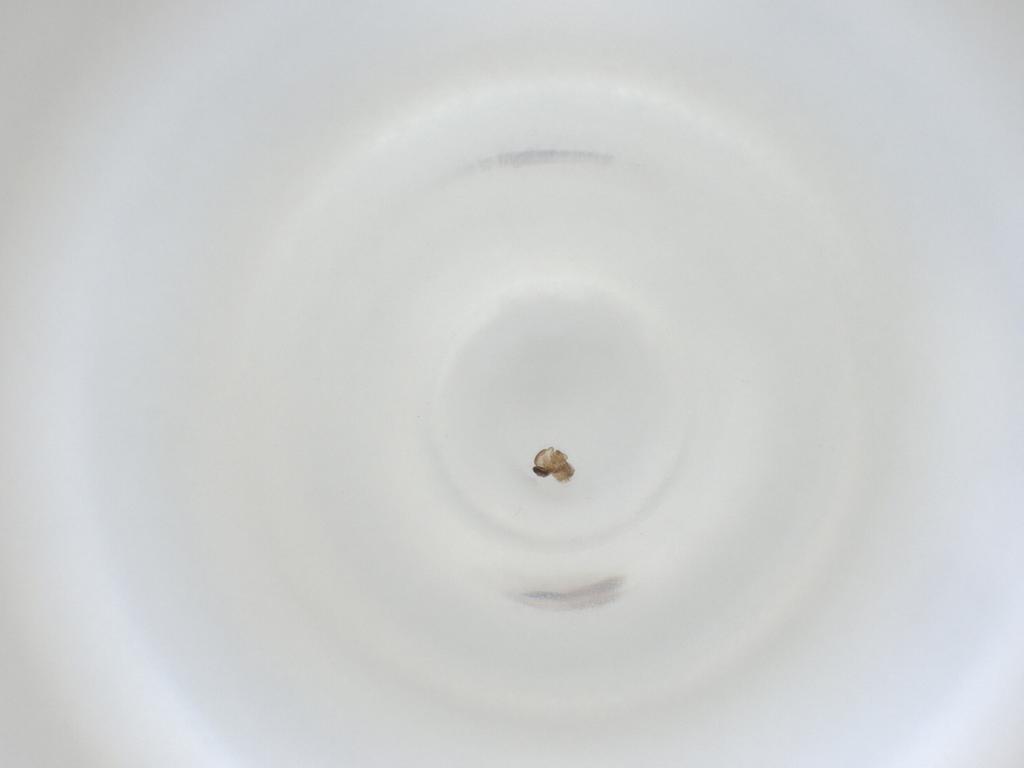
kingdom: Animalia
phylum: Arthropoda
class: Insecta
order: Diptera
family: Cecidomyiidae
